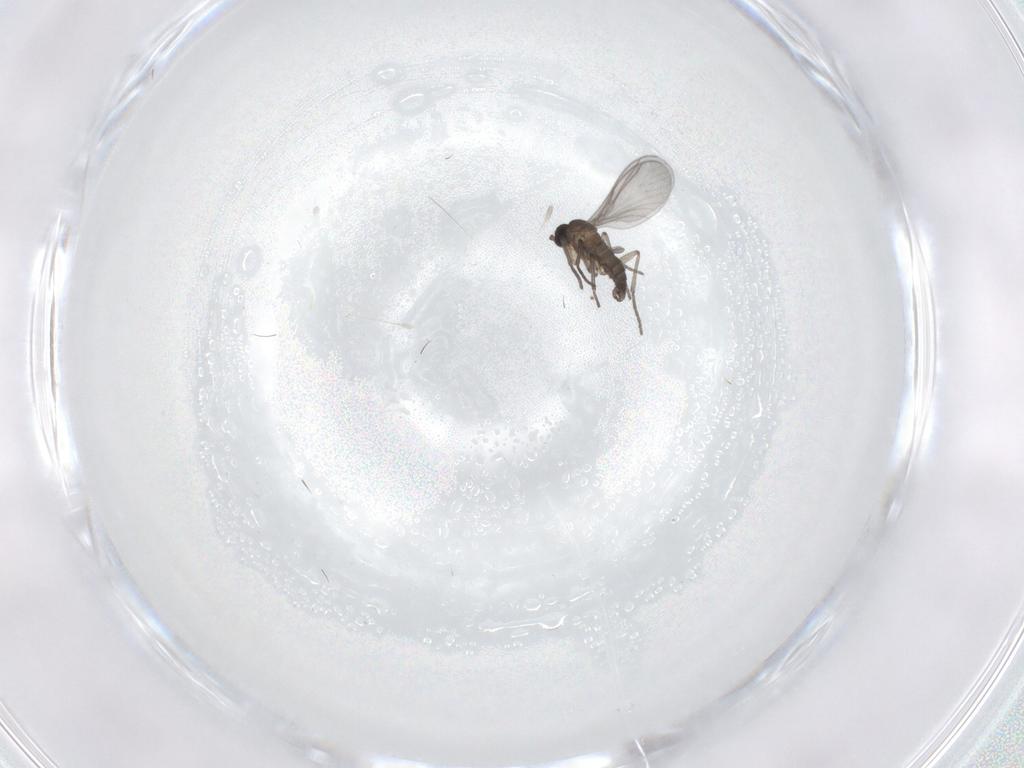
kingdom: Animalia
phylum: Arthropoda
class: Insecta
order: Diptera
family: Sciaridae
